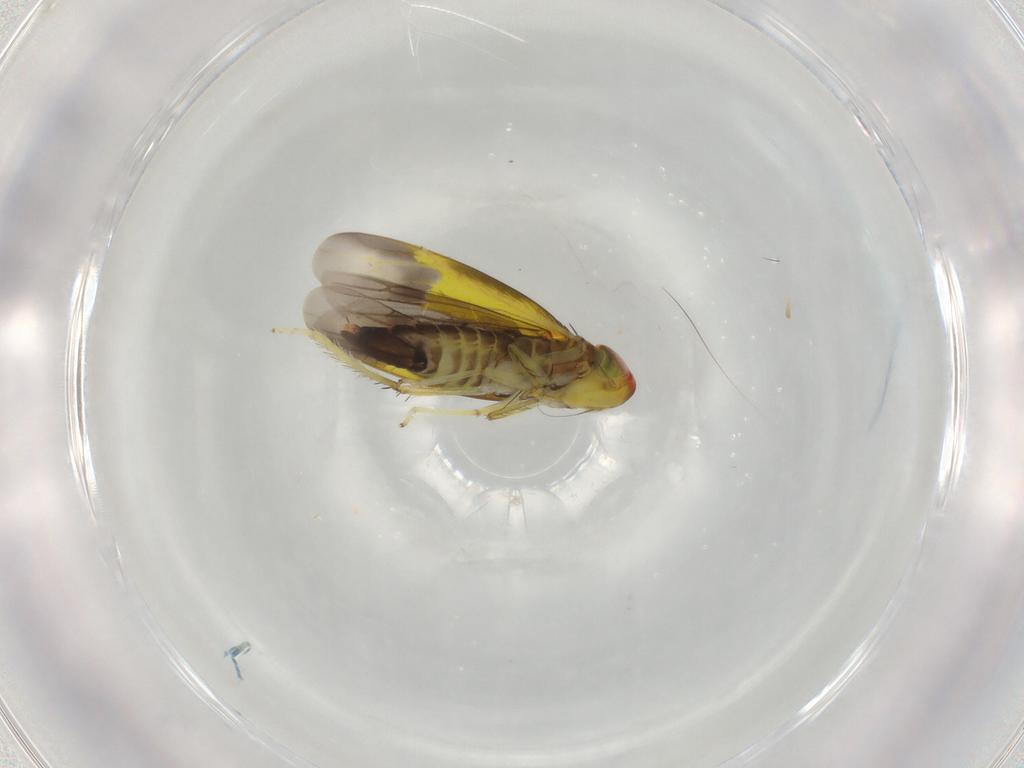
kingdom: Animalia
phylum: Arthropoda
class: Insecta
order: Hemiptera
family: Cicadellidae
